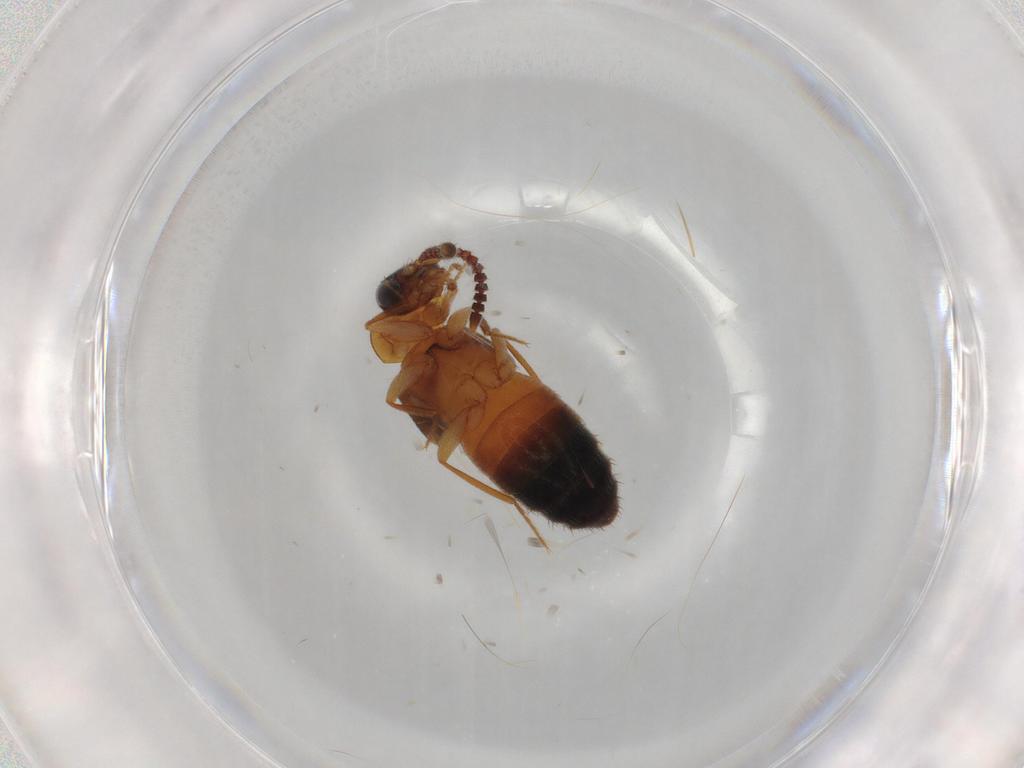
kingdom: Animalia
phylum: Arthropoda
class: Insecta
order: Coleoptera
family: Staphylinidae
